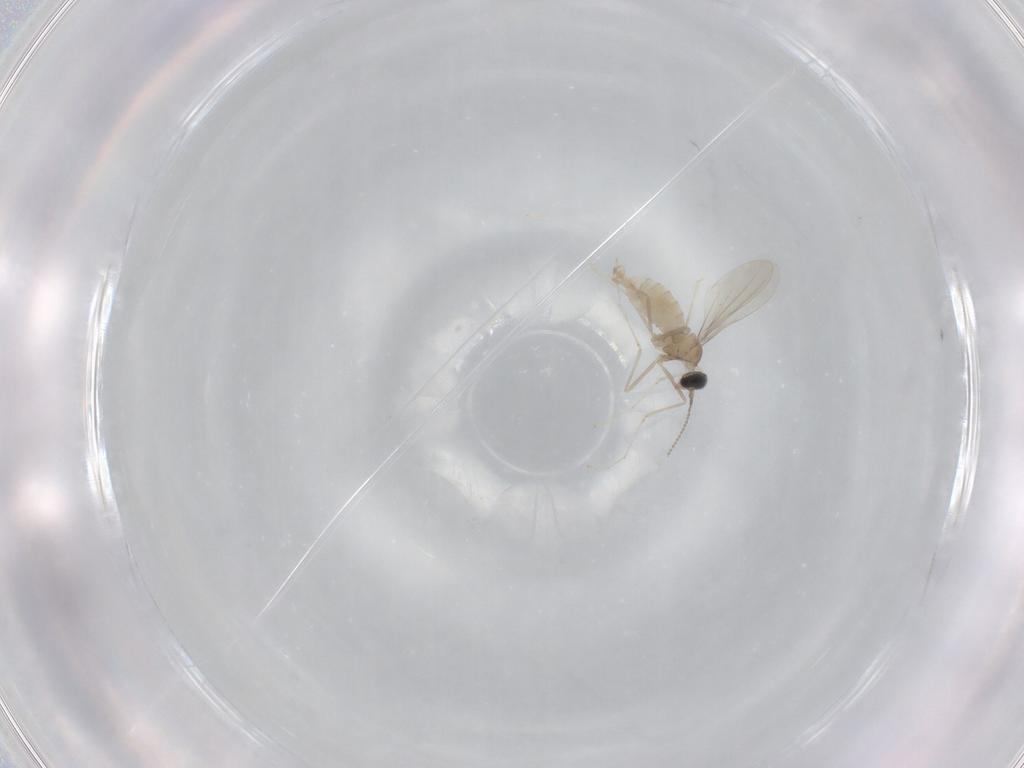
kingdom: Animalia
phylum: Arthropoda
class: Insecta
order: Diptera
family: Cecidomyiidae
